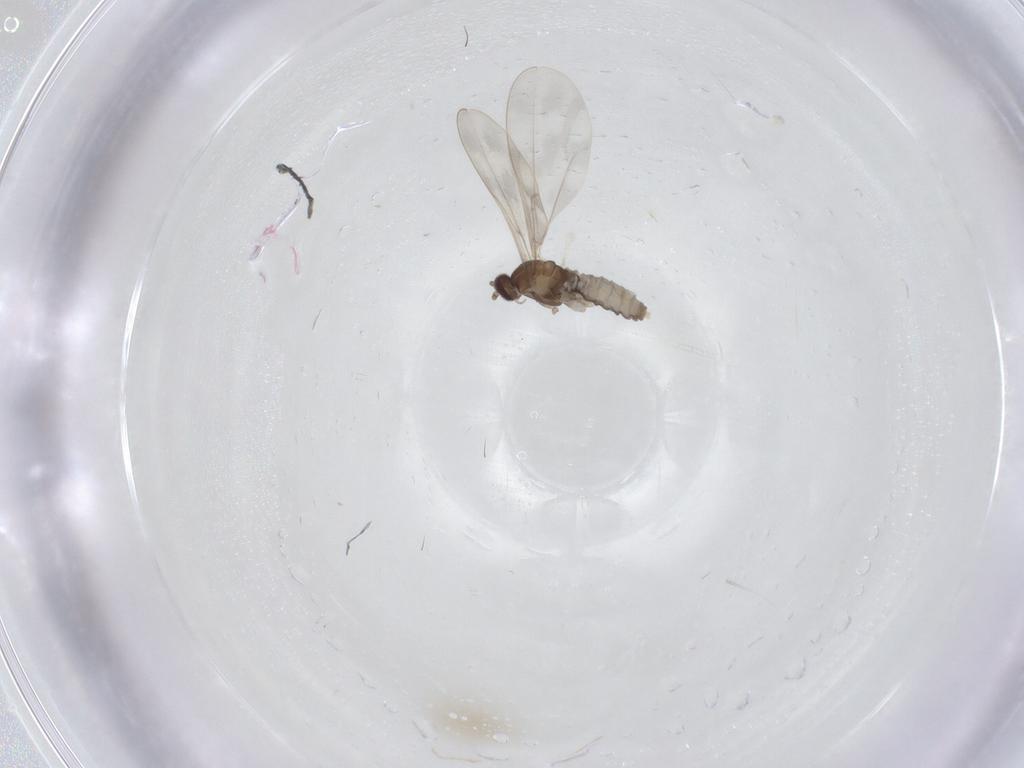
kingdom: Animalia
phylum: Arthropoda
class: Insecta
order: Diptera
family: Cecidomyiidae
